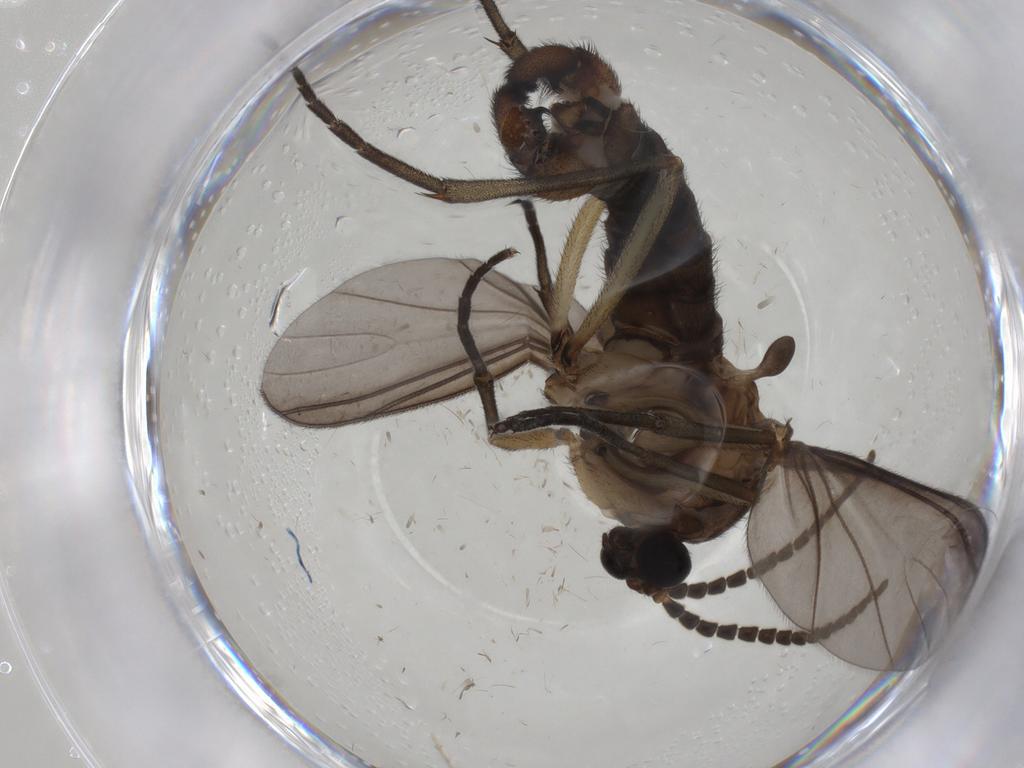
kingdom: Animalia
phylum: Arthropoda
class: Insecta
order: Diptera
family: Sciaridae
